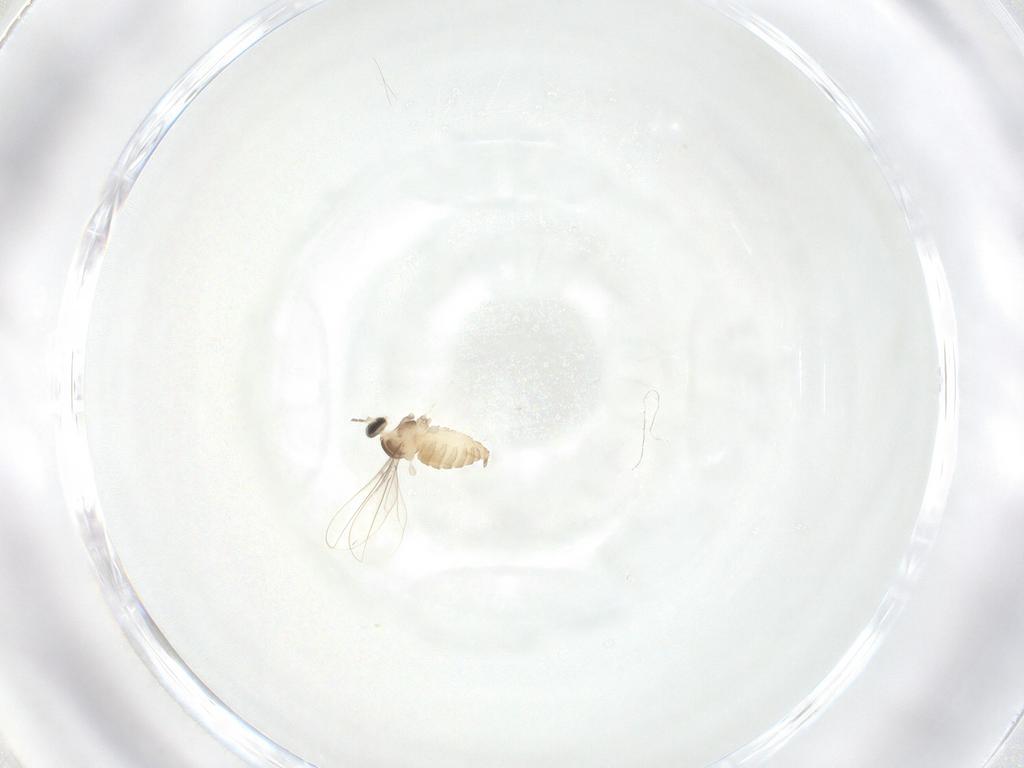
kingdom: Animalia
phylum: Arthropoda
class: Insecta
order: Diptera
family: Cecidomyiidae
